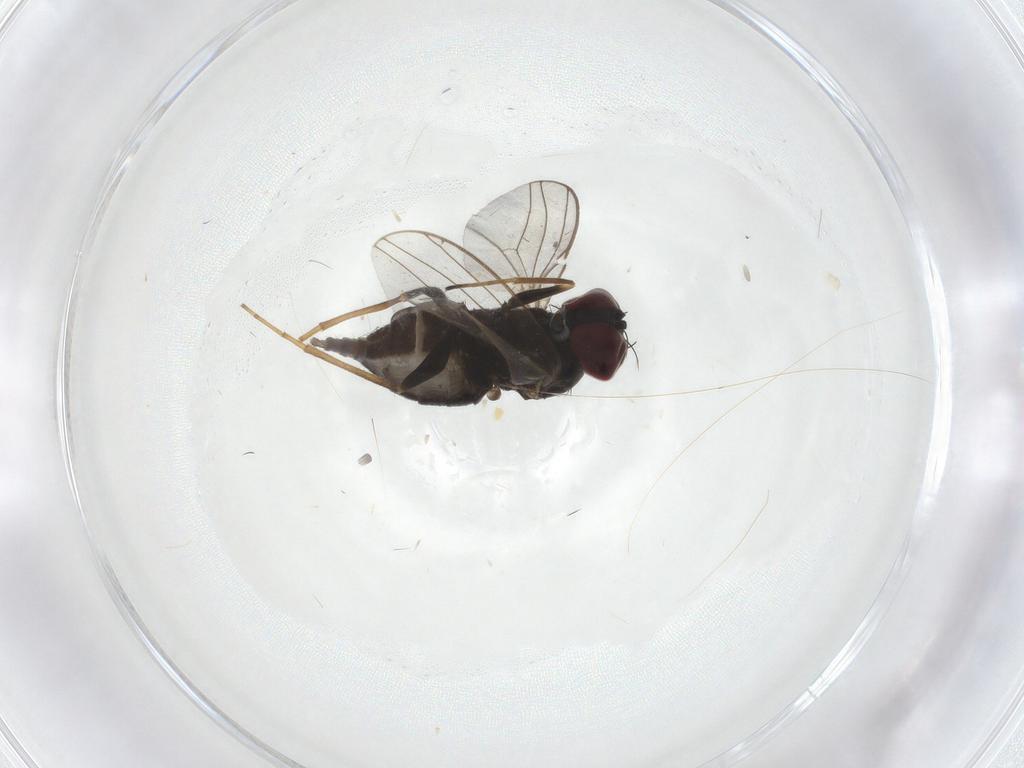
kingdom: Animalia
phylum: Arthropoda
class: Insecta
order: Diptera
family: Dolichopodidae
